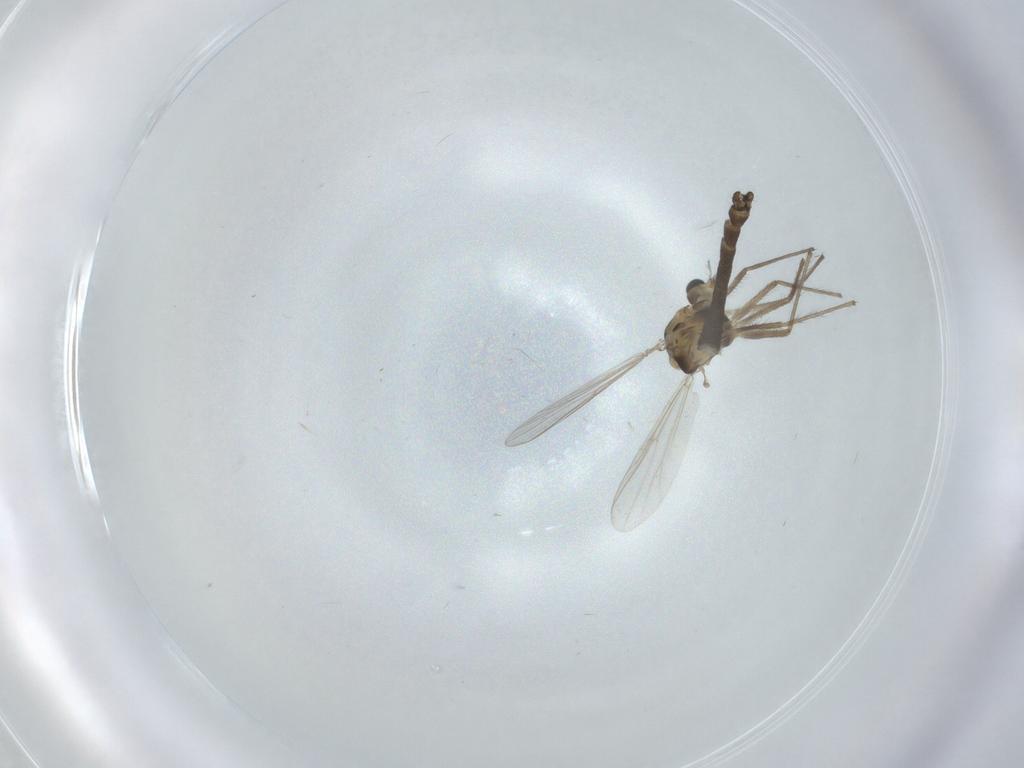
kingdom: Animalia
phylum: Arthropoda
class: Insecta
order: Diptera
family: Chironomidae
